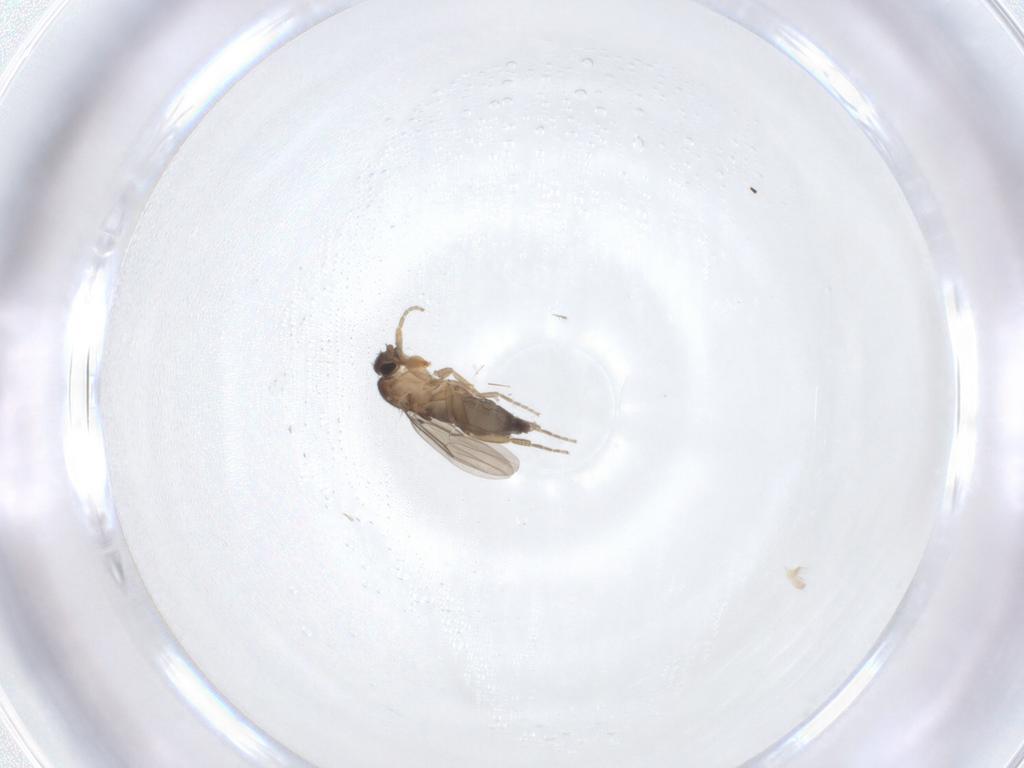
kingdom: Animalia
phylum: Arthropoda
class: Insecta
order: Diptera
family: Phoridae
